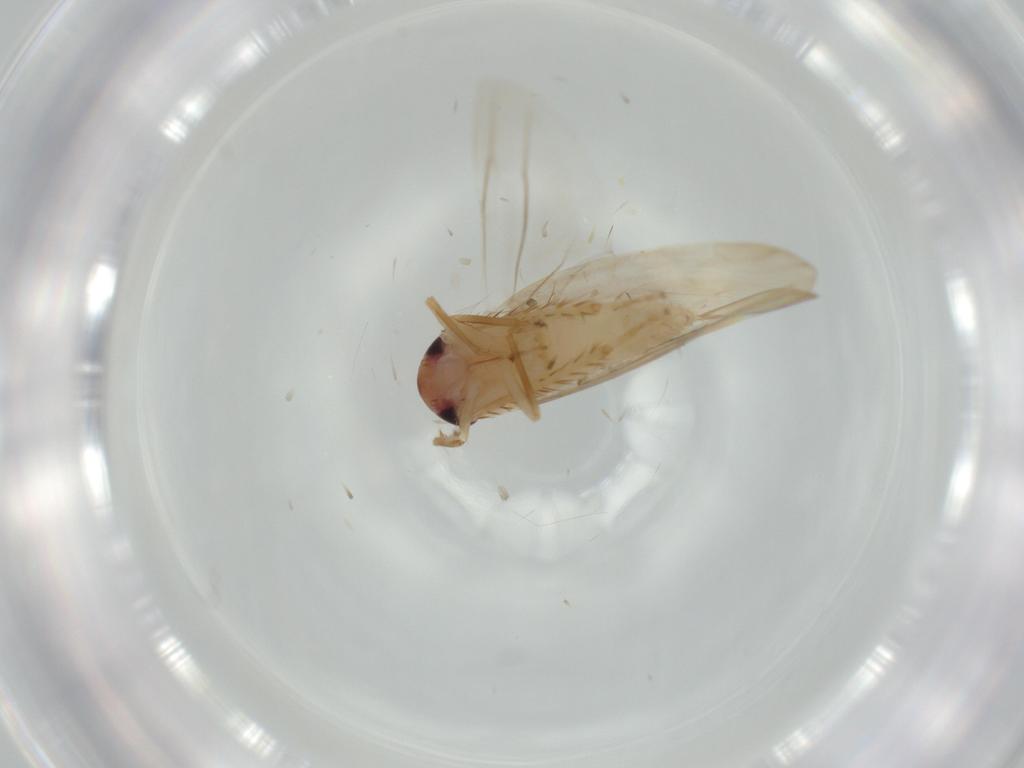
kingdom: Animalia
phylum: Arthropoda
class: Insecta
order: Hemiptera
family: Cicadellidae
